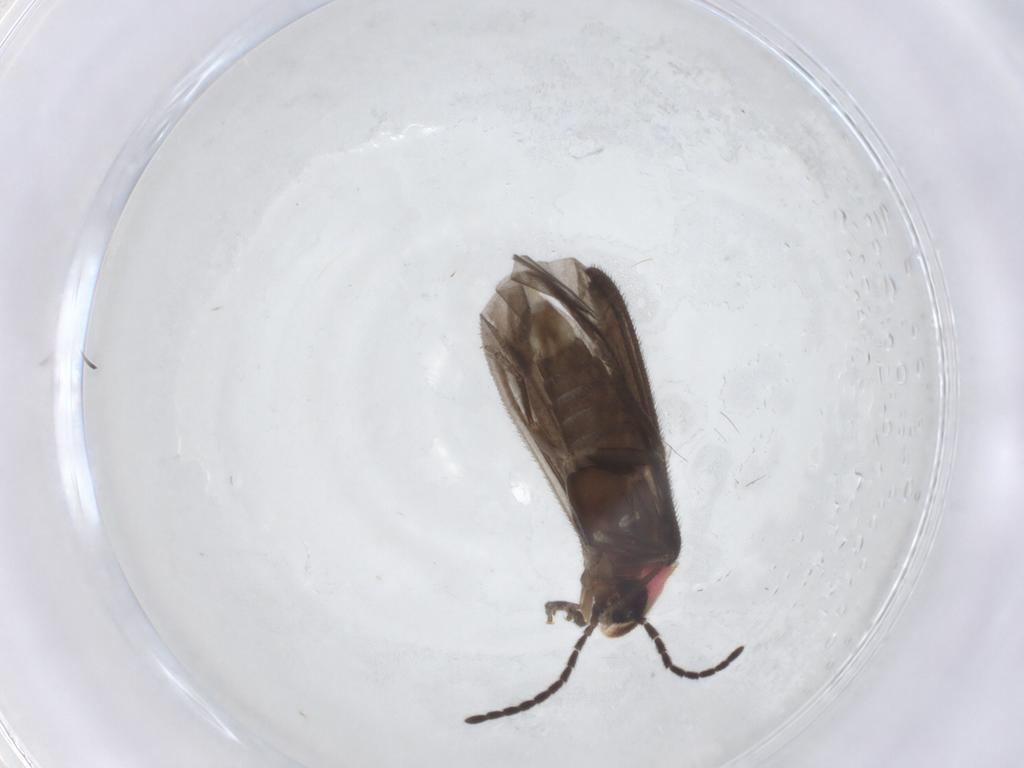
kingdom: Animalia
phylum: Arthropoda
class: Insecta
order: Coleoptera
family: Lampyridae
